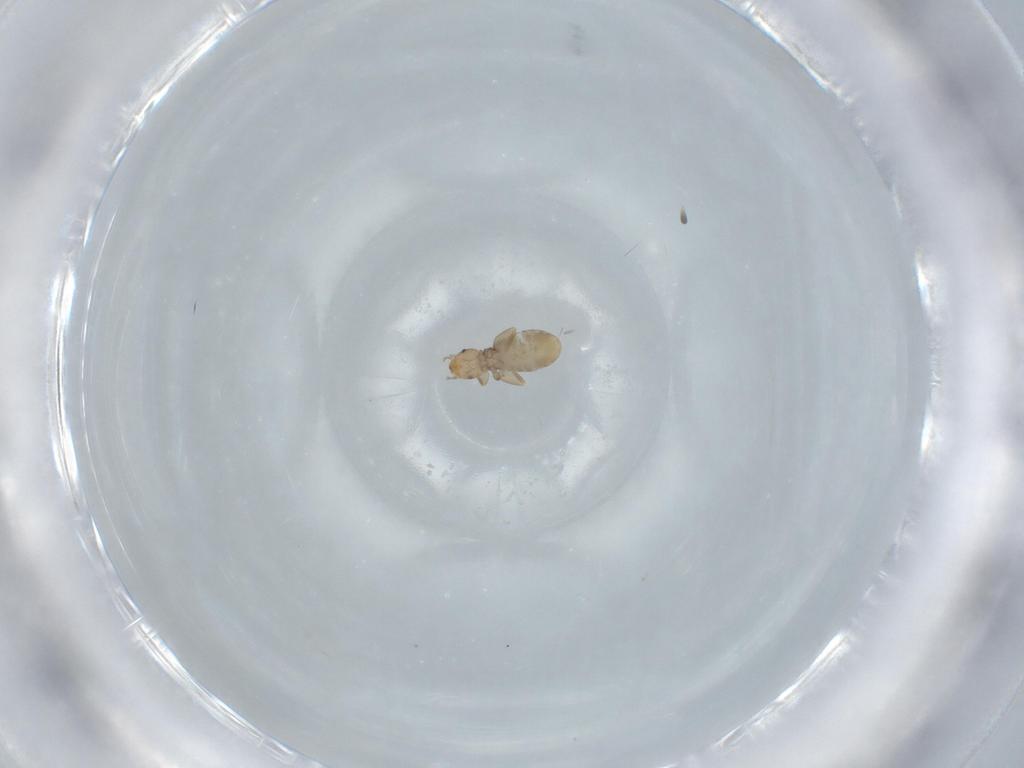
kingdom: Animalia
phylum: Arthropoda
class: Insecta
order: Psocodea
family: Liposcelididae
